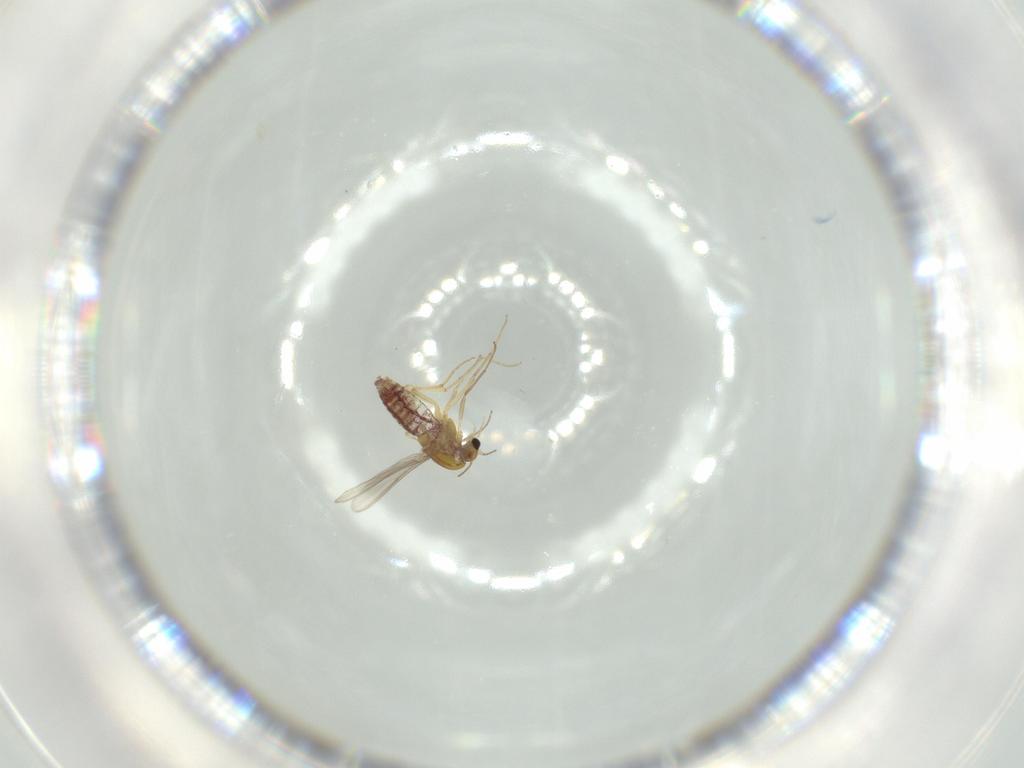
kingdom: Animalia
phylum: Arthropoda
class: Insecta
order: Diptera
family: Chironomidae
